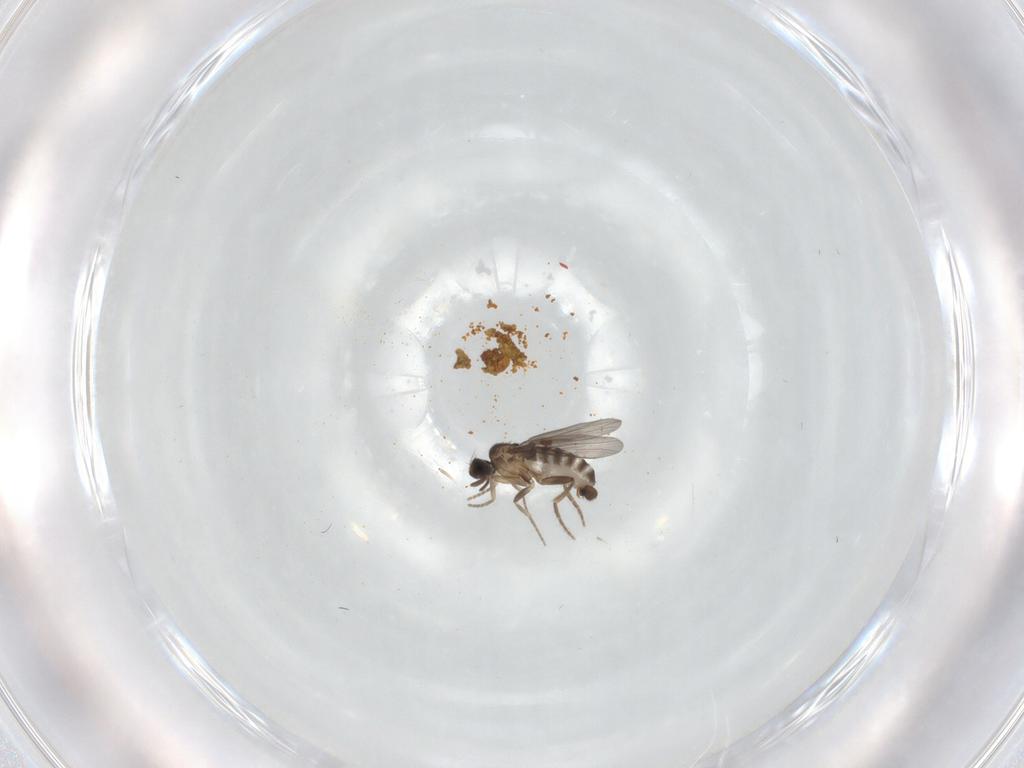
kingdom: Animalia
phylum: Arthropoda
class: Insecta
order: Diptera
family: Chironomidae
